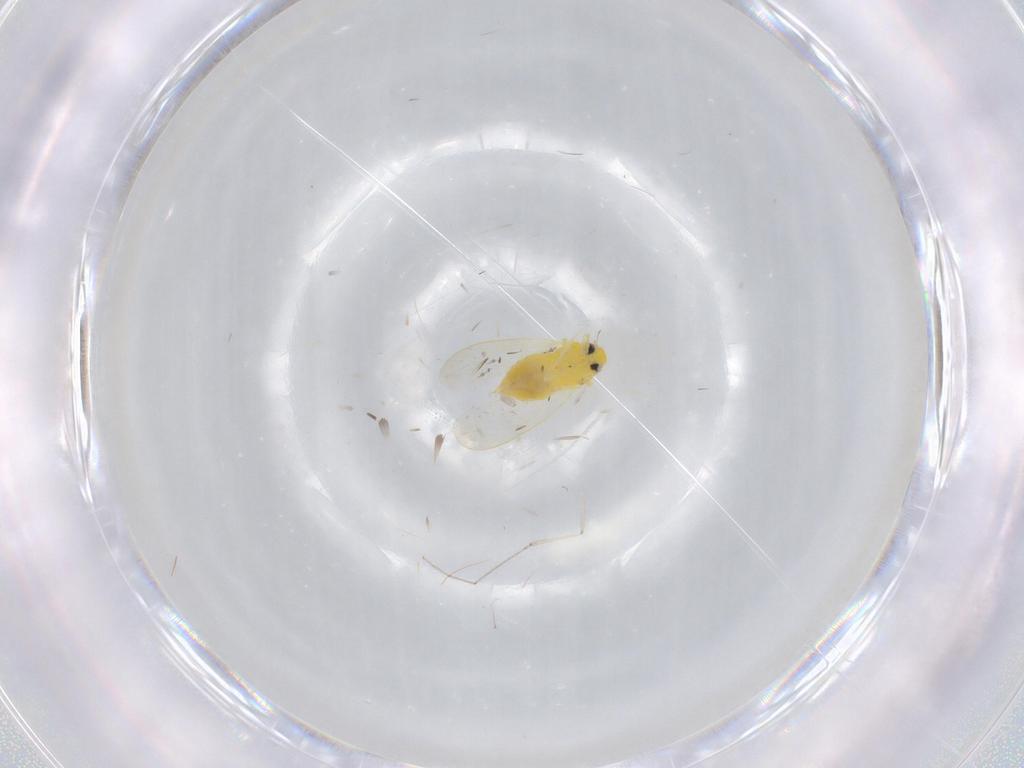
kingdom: Animalia
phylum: Arthropoda
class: Insecta
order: Hemiptera
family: Aleyrodidae
